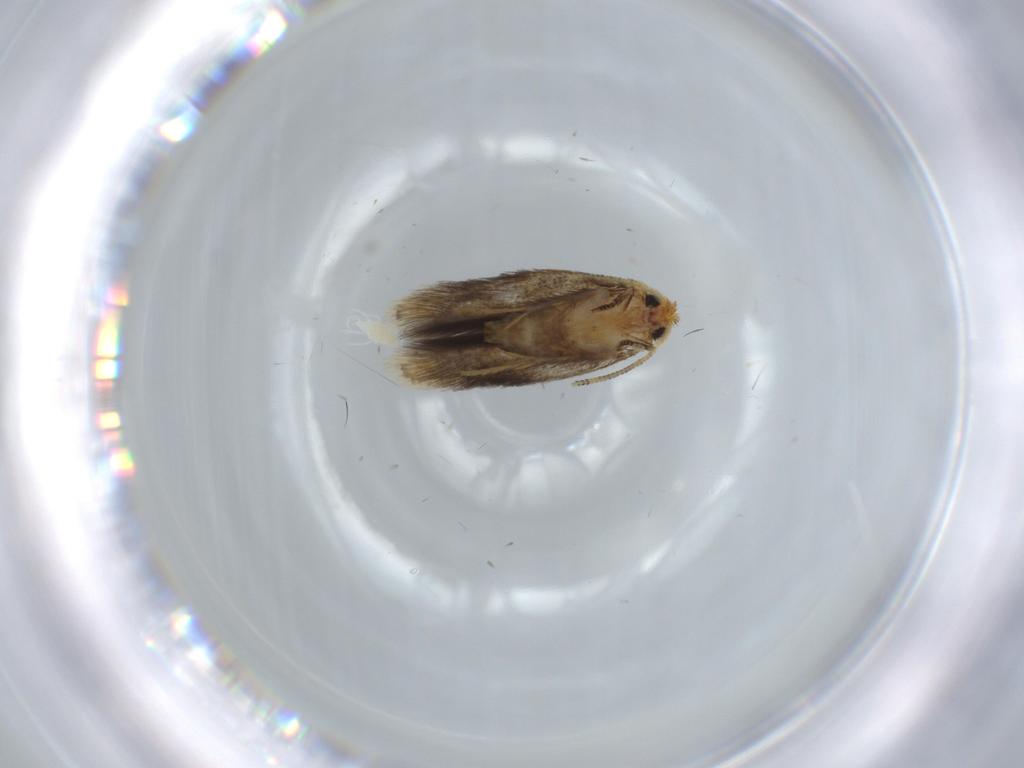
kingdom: Animalia
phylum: Arthropoda
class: Insecta
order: Lepidoptera
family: Nepticulidae
